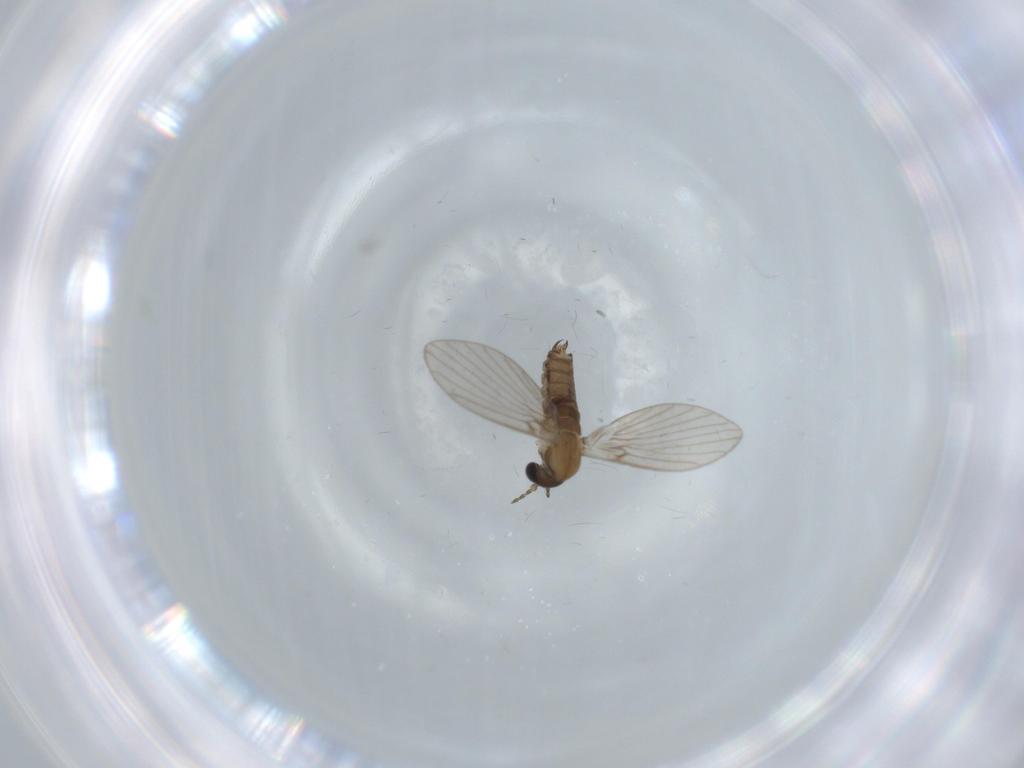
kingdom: Animalia
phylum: Arthropoda
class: Insecta
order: Diptera
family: Psychodidae
